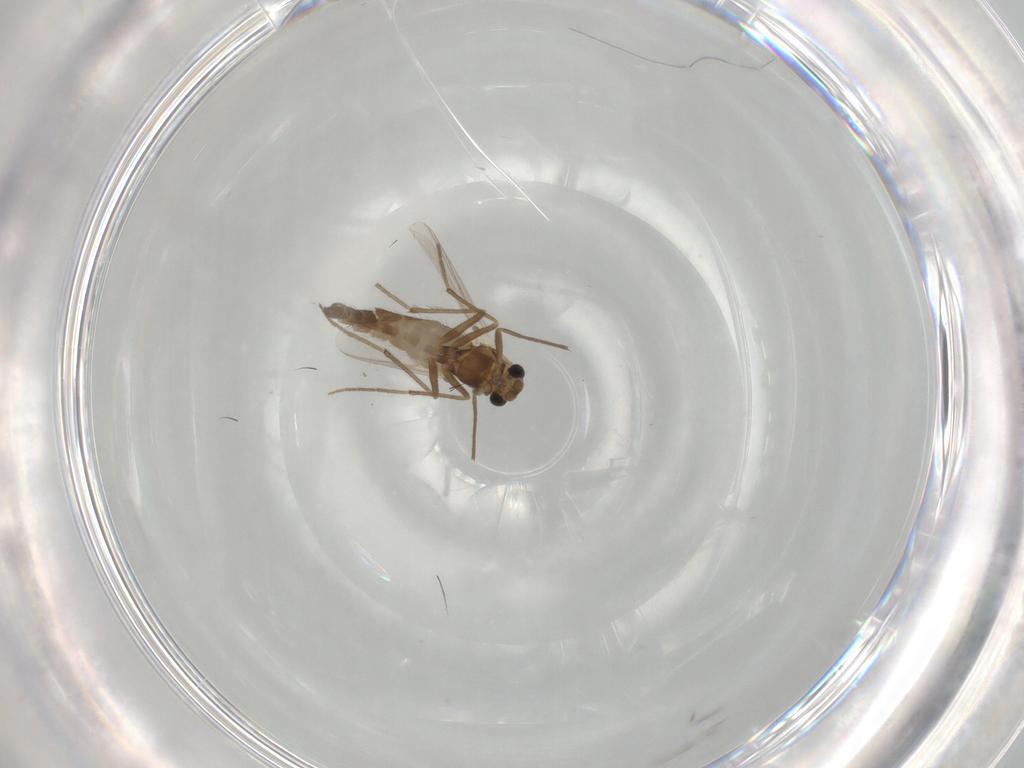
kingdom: Animalia
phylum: Arthropoda
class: Insecta
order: Diptera
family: Chironomidae
